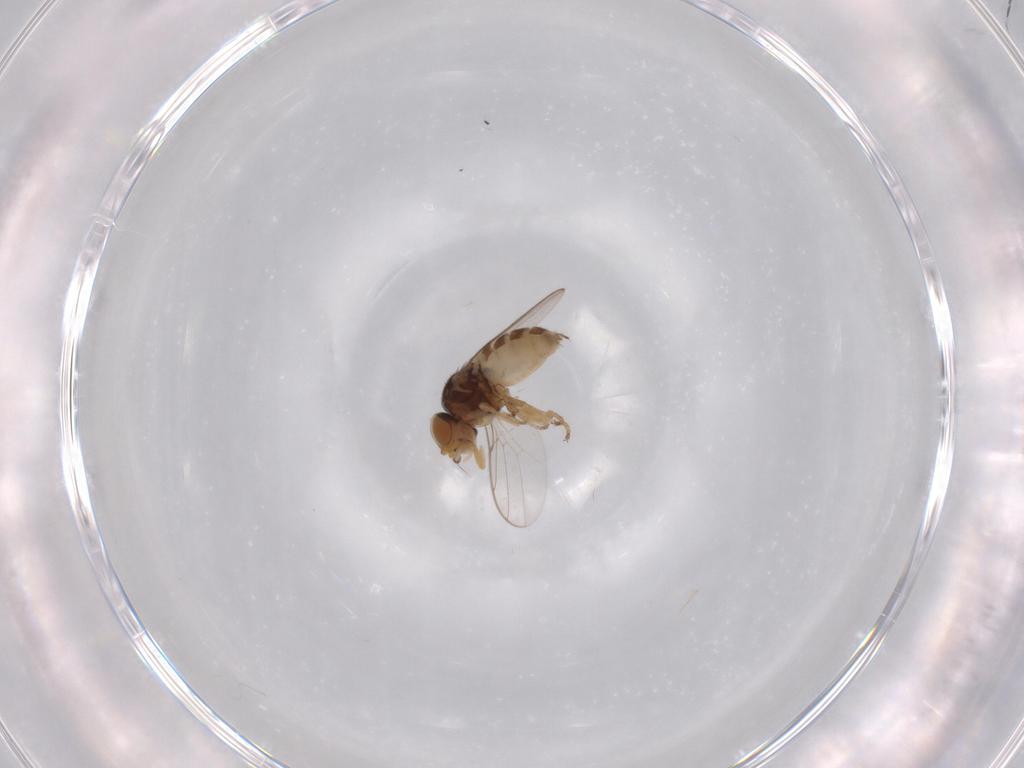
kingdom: Animalia
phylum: Arthropoda
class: Insecta
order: Diptera
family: Chloropidae
